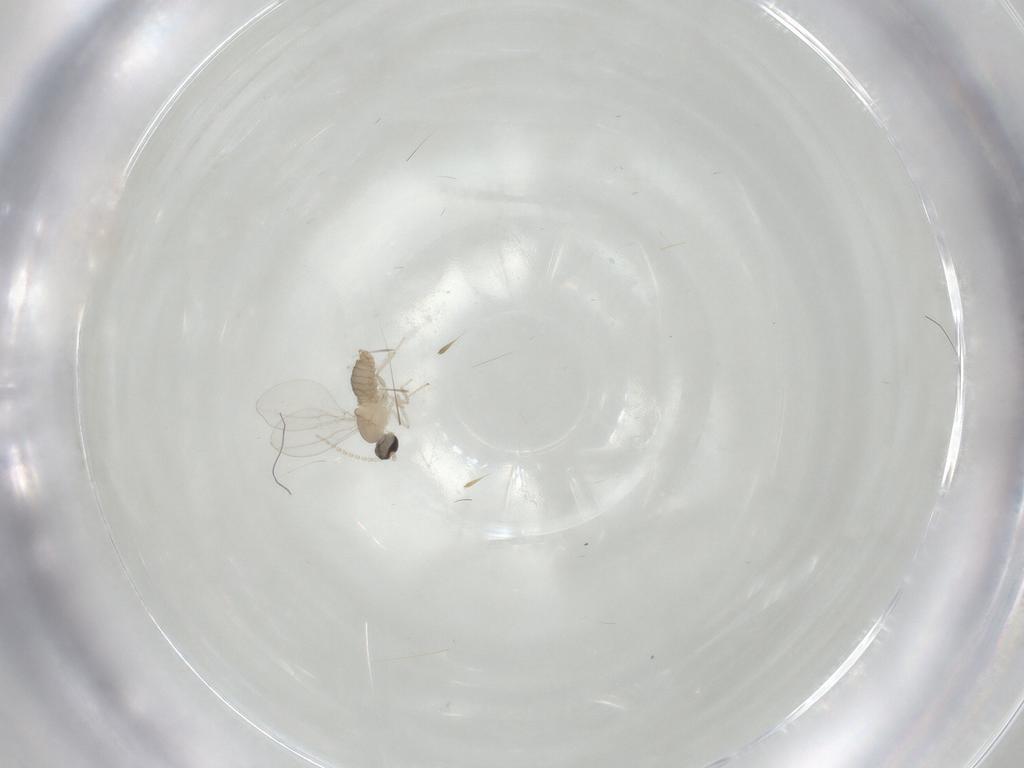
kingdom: Animalia
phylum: Arthropoda
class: Insecta
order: Diptera
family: Cecidomyiidae
